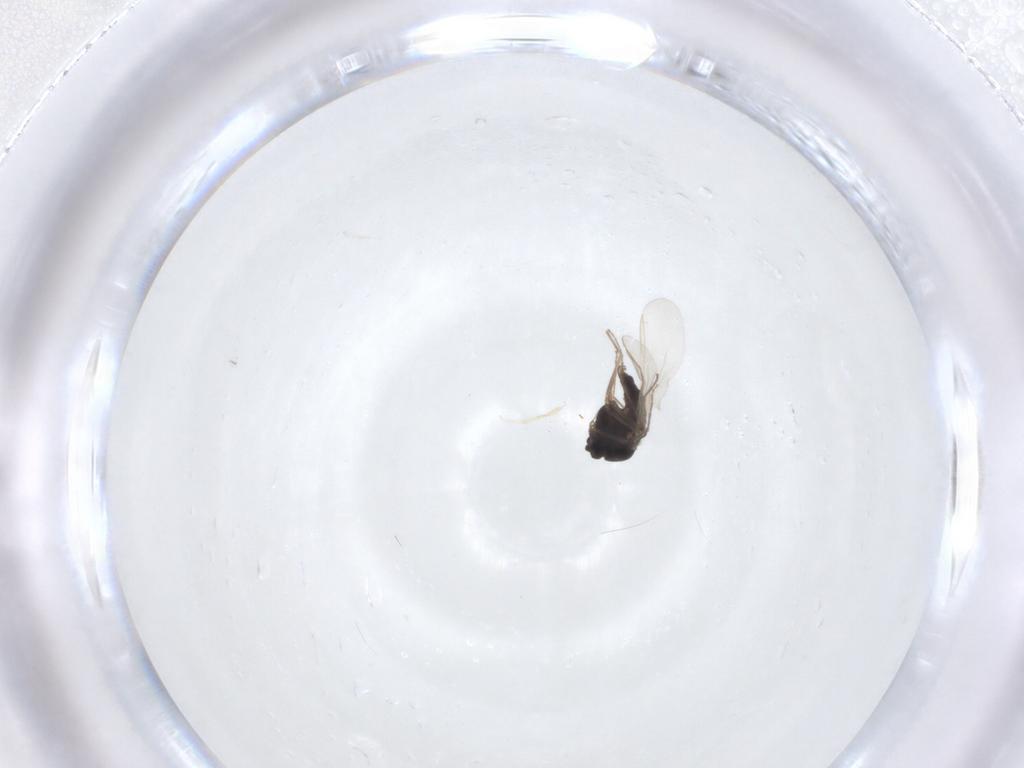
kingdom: Animalia
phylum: Arthropoda
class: Insecta
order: Diptera
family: Chironomidae
